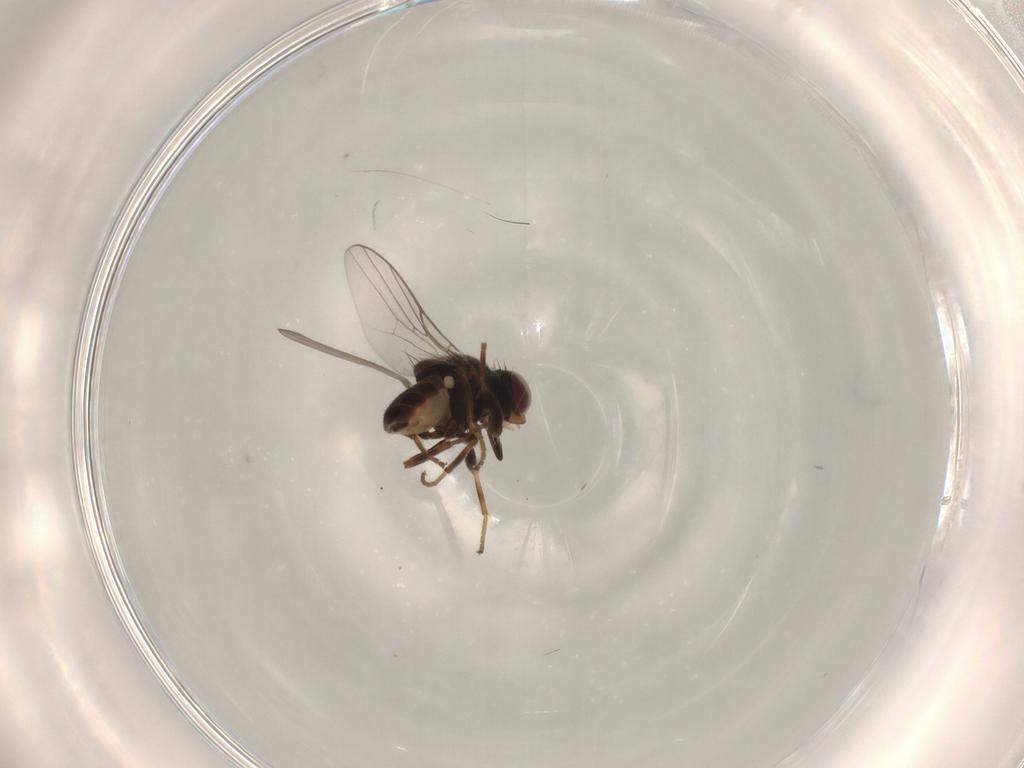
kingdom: Animalia
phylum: Arthropoda
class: Insecta
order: Diptera
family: Chloropidae
